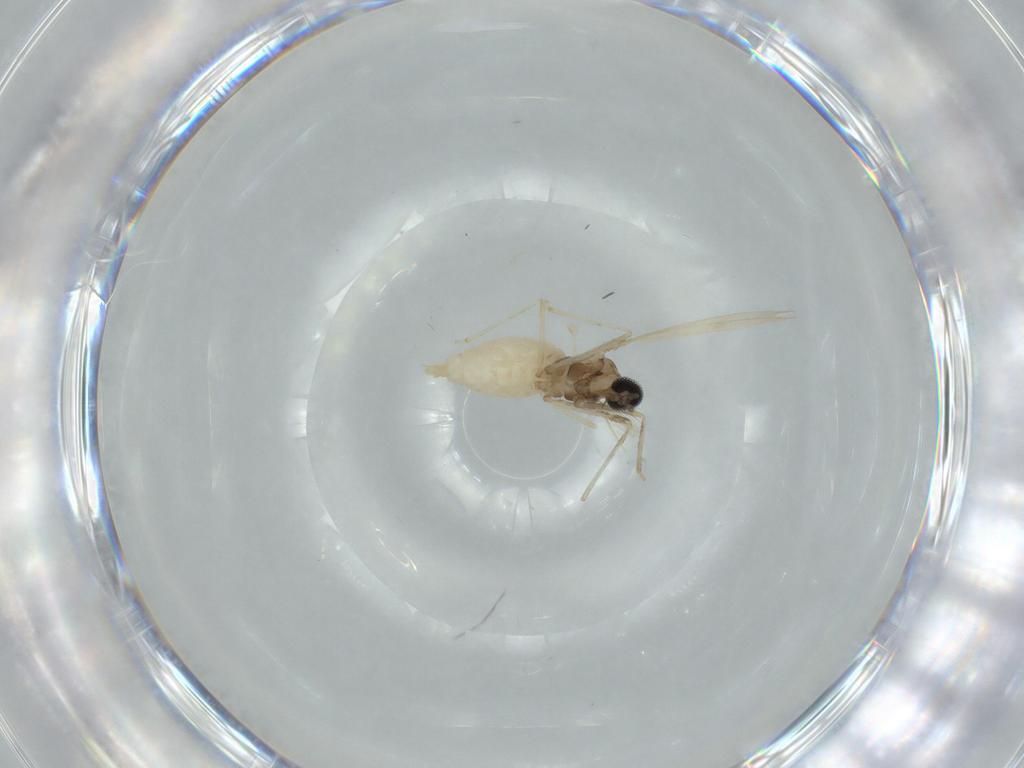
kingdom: Animalia
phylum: Arthropoda
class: Insecta
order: Diptera
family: Cecidomyiidae
